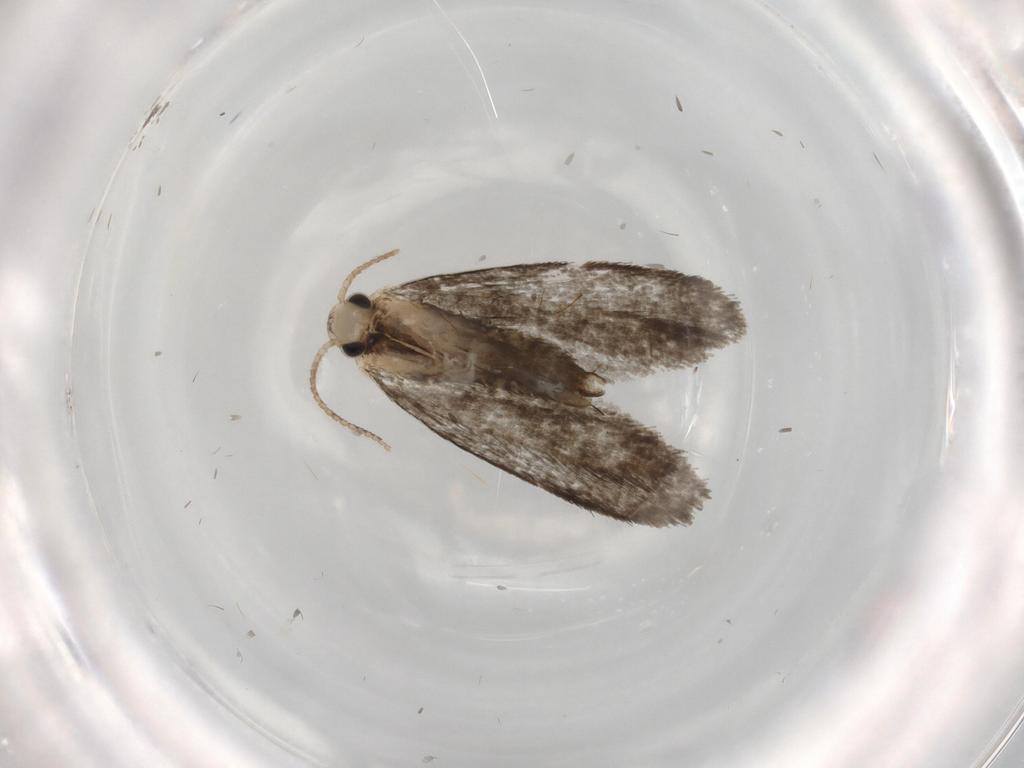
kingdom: Animalia
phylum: Arthropoda
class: Insecta
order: Lepidoptera
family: Psychidae
